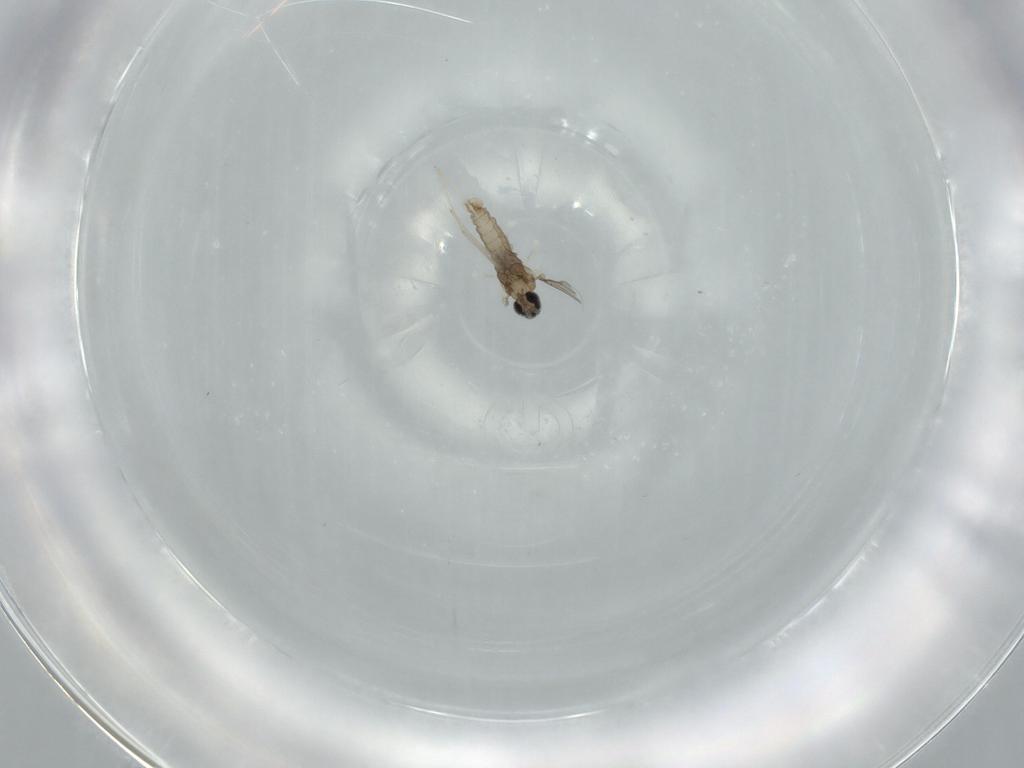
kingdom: Animalia
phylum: Arthropoda
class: Insecta
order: Diptera
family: Cecidomyiidae
